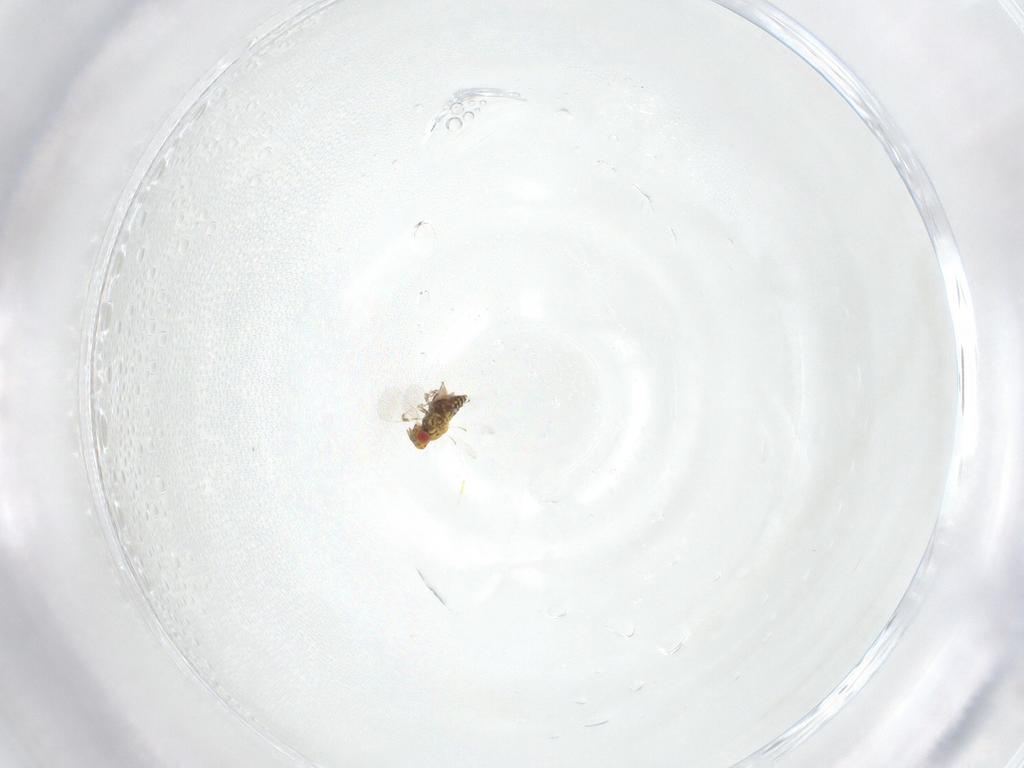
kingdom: Animalia
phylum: Arthropoda
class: Insecta
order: Hymenoptera
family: Trichogrammatidae
